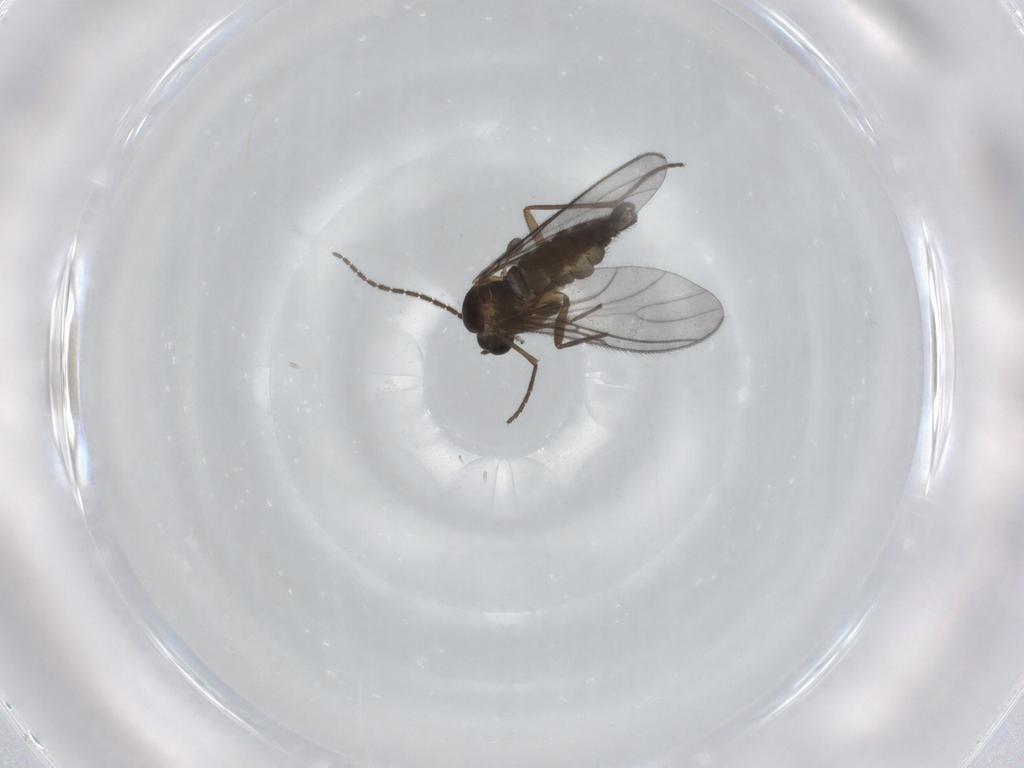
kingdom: Animalia
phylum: Arthropoda
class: Insecta
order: Diptera
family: Sciaridae
